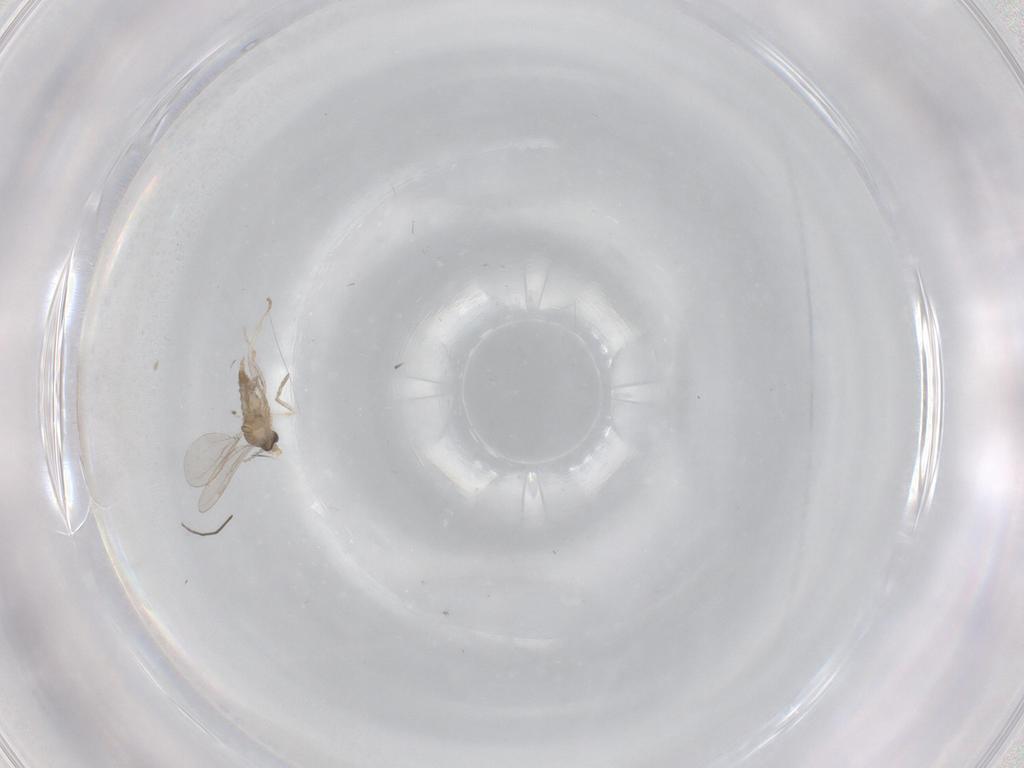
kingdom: Animalia
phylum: Arthropoda
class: Insecta
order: Diptera
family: Cecidomyiidae
